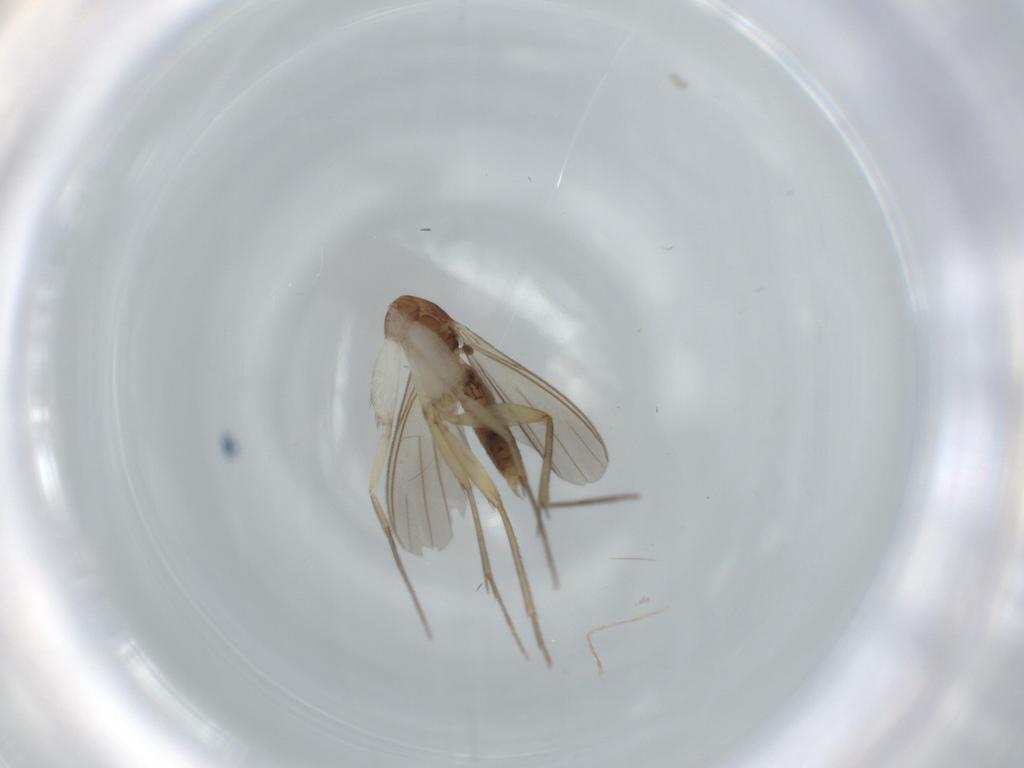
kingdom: Animalia
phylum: Arthropoda
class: Insecta
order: Diptera
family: Mycetophilidae
